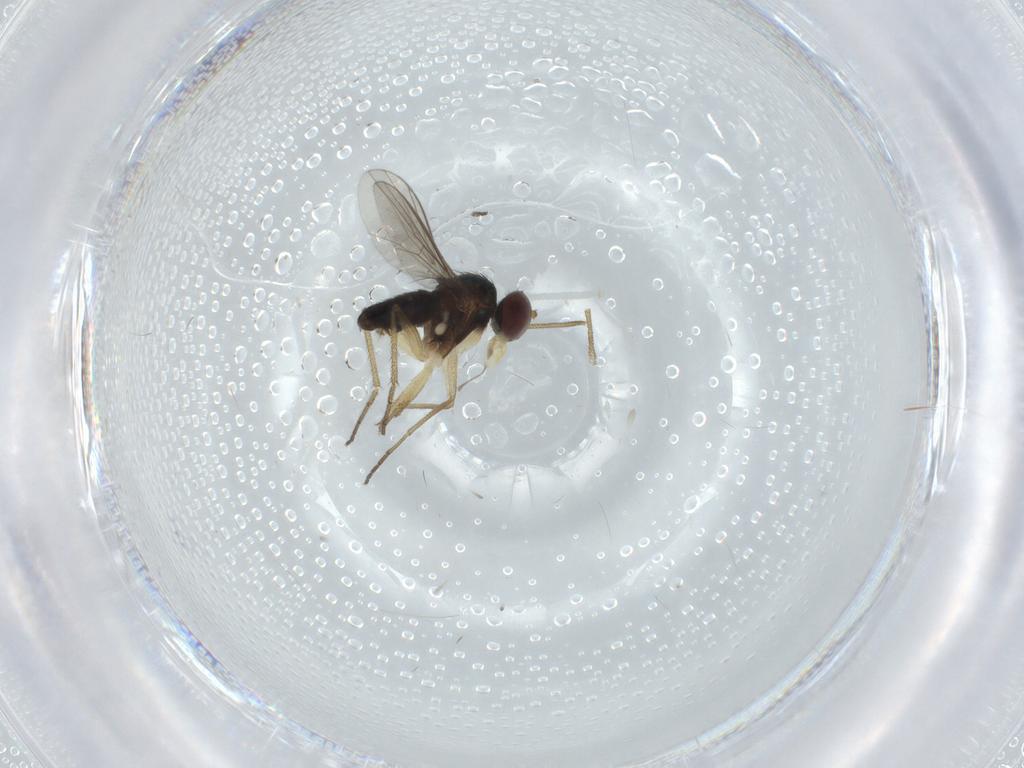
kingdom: Animalia
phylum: Arthropoda
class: Insecta
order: Diptera
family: Dolichopodidae
